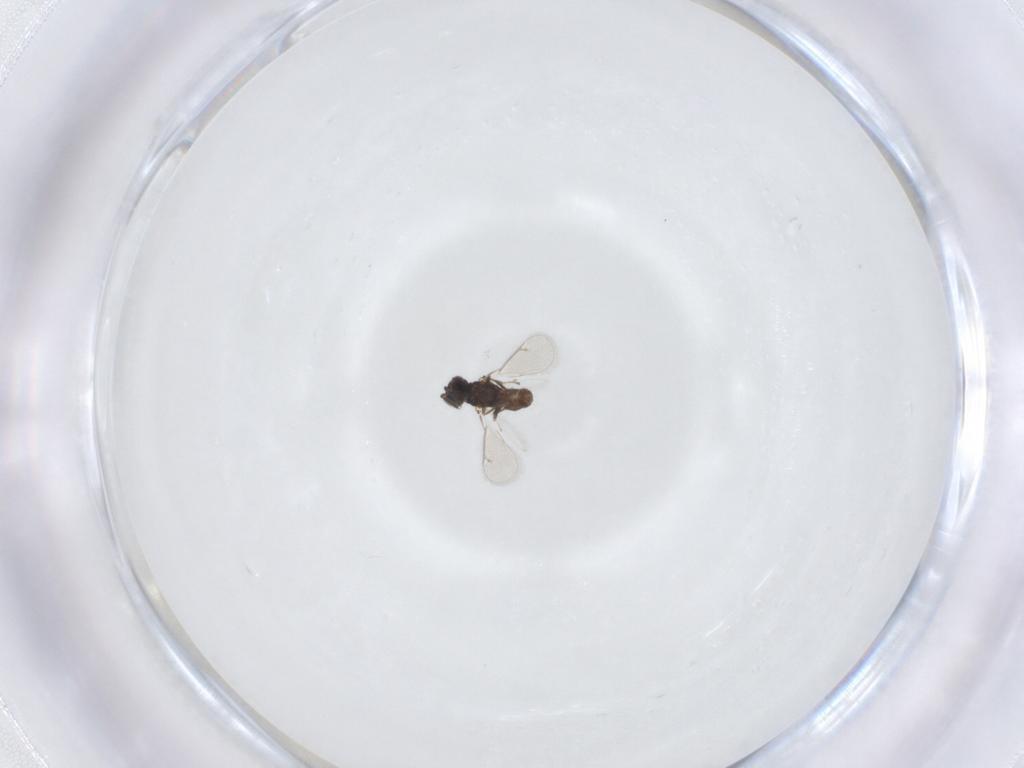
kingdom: Animalia
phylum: Arthropoda
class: Insecta
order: Hymenoptera
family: Eulophidae
